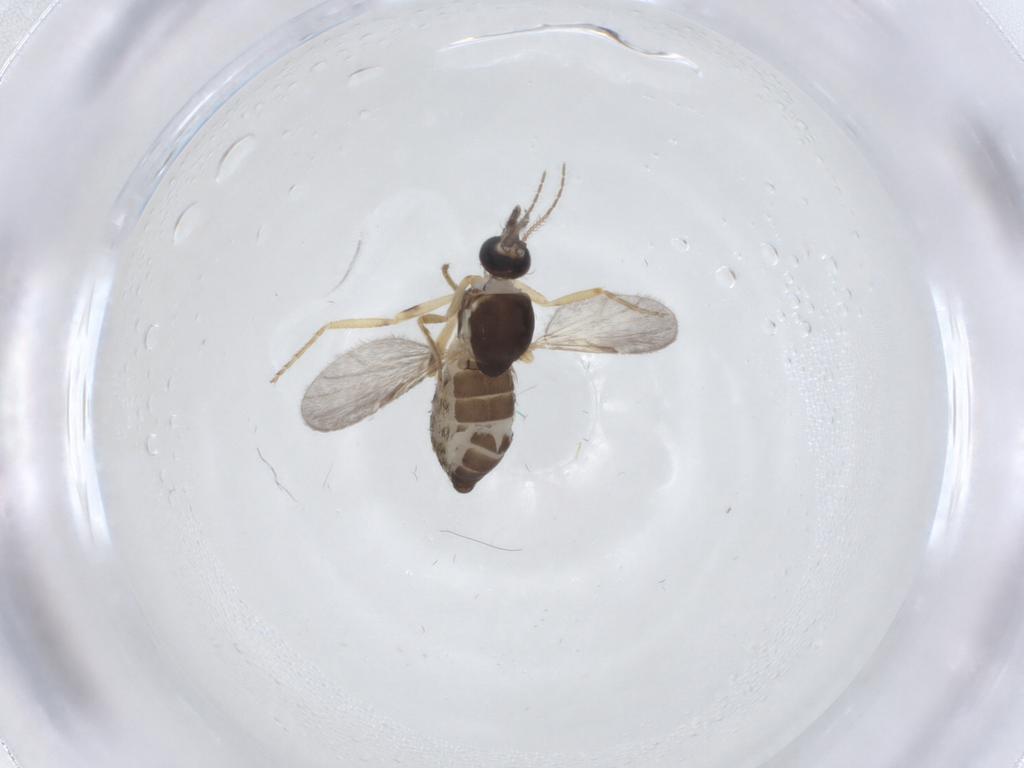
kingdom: Animalia
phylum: Arthropoda
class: Insecta
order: Diptera
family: Ceratopogonidae
